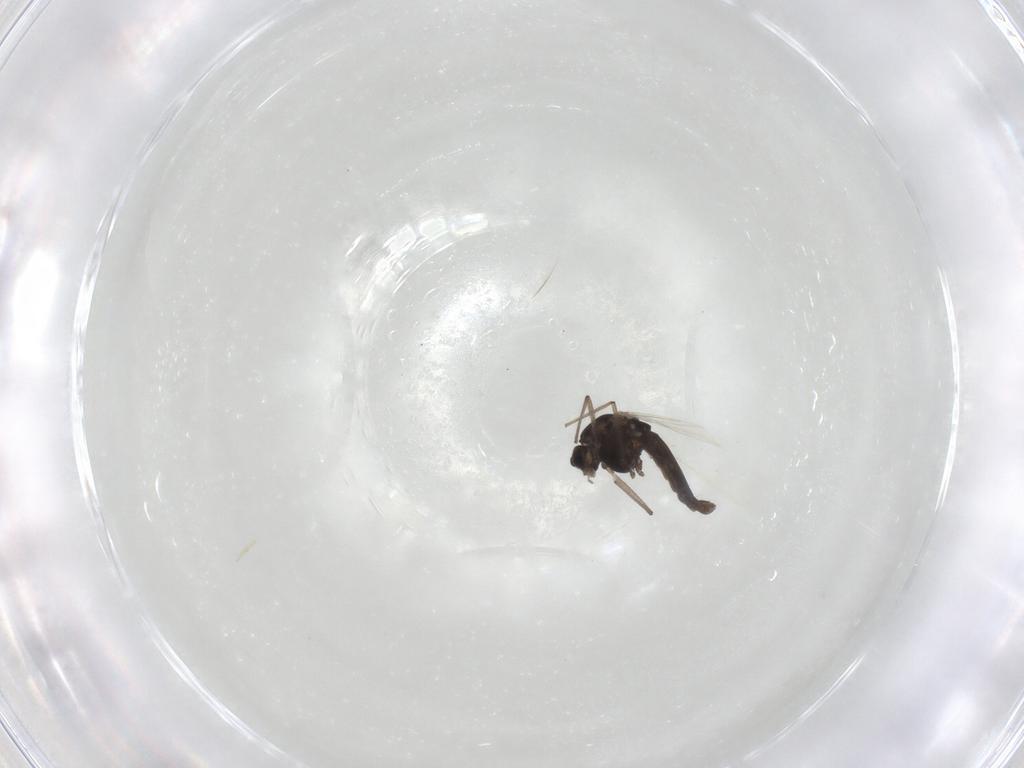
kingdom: Animalia
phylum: Arthropoda
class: Insecta
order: Diptera
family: Chironomidae
